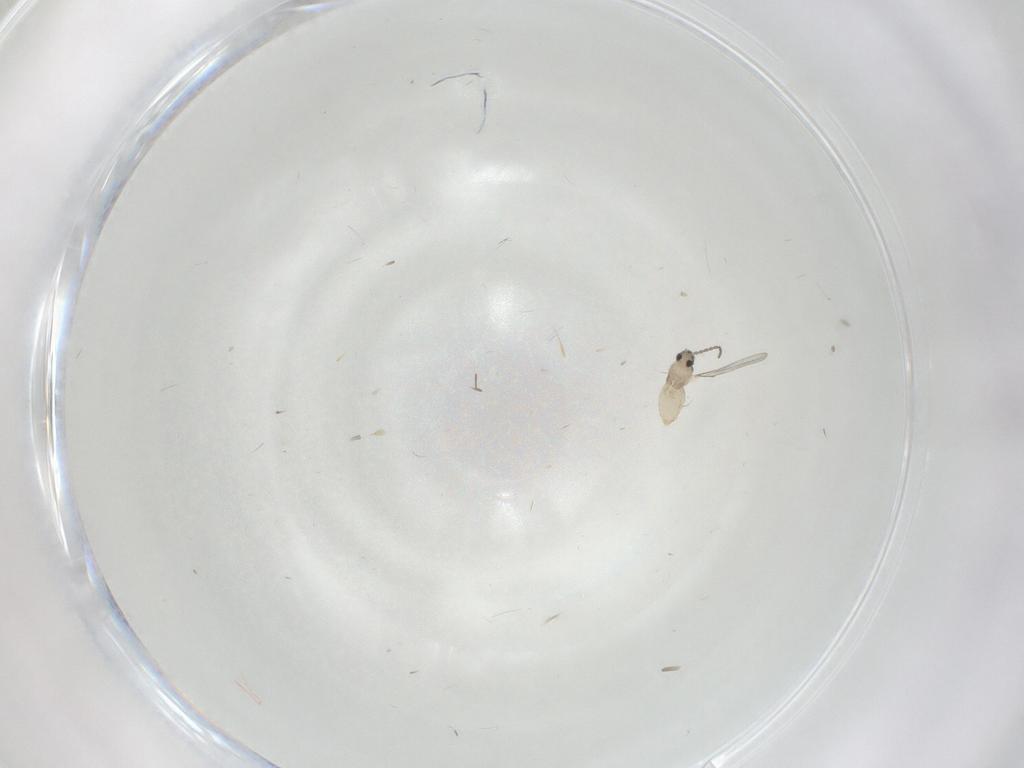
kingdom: Animalia
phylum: Arthropoda
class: Insecta
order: Diptera
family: Cecidomyiidae
